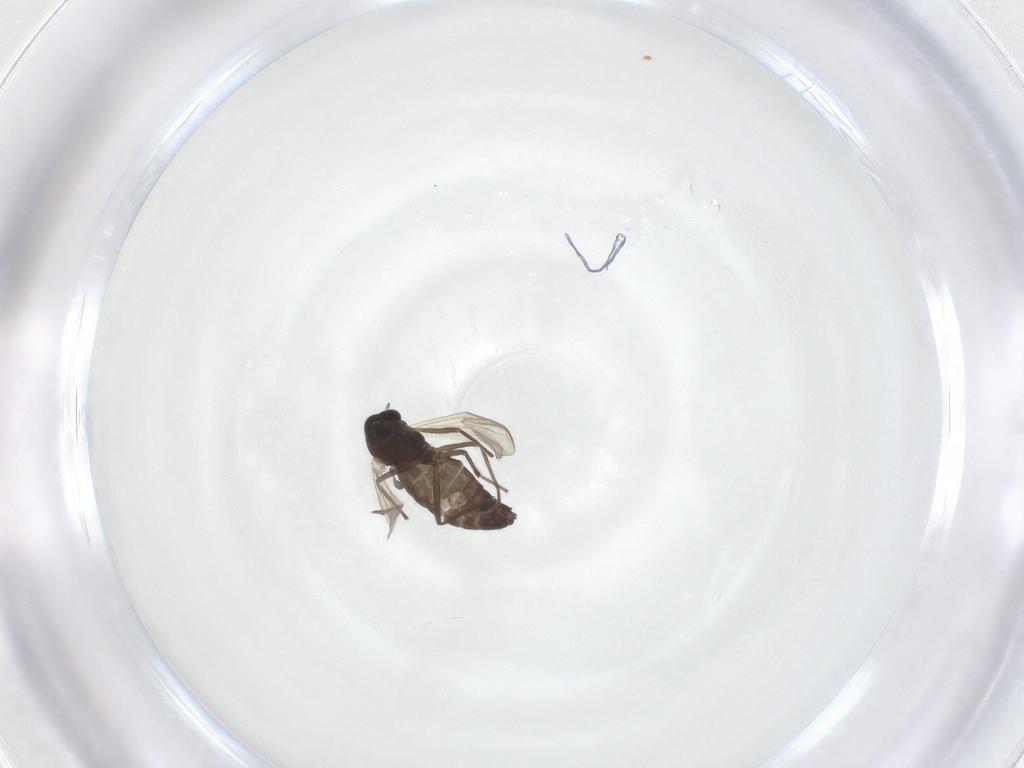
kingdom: Animalia
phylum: Arthropoda
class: Insecta
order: Diptera
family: Chironomidae
